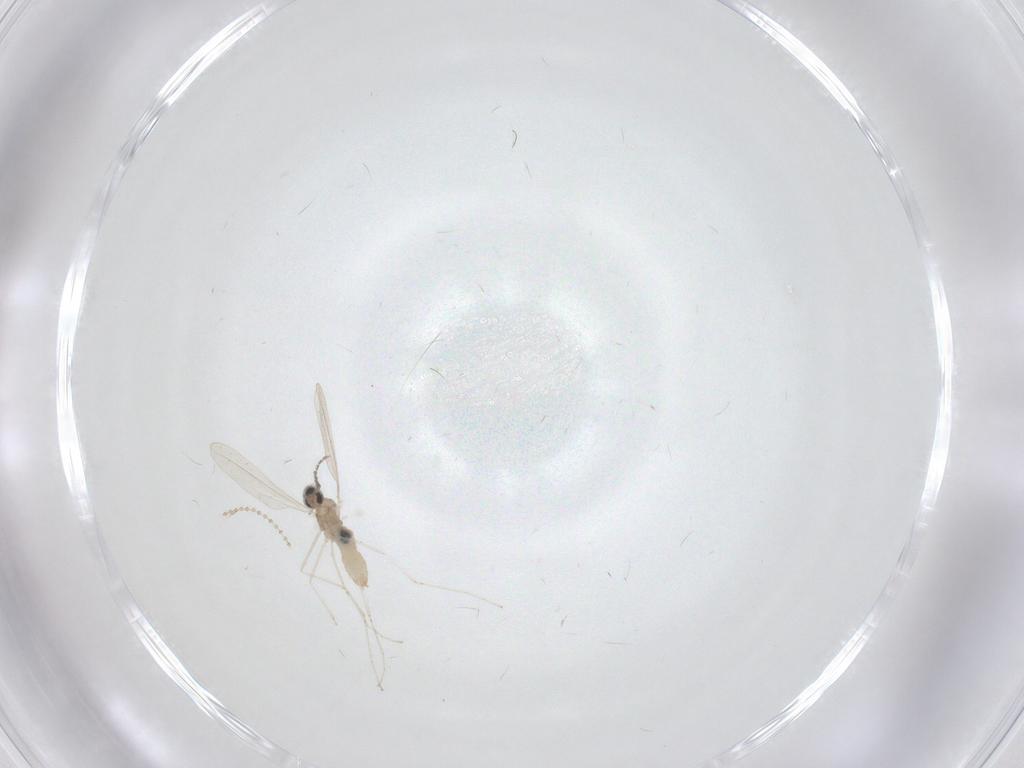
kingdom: Animalia
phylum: Arthropoda
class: Insecta
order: Diptera
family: Cecidomyiidae
